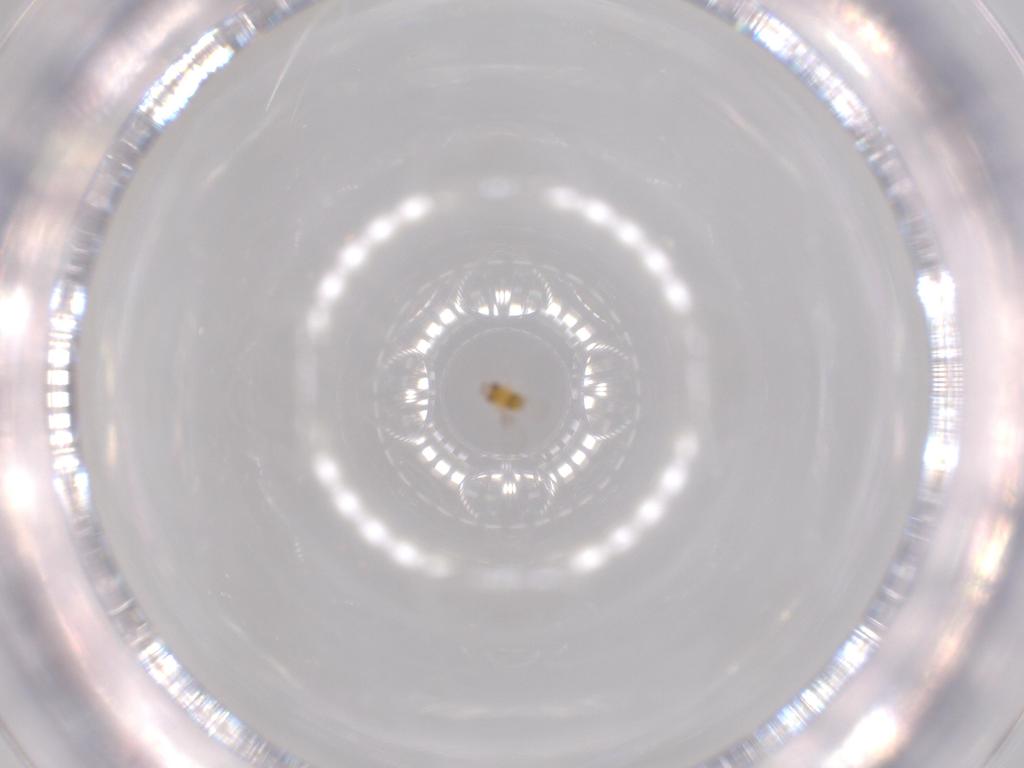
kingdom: Animalia
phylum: Arthropoda
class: Insecta
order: Hymenoptera
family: Trichogrammatidae
